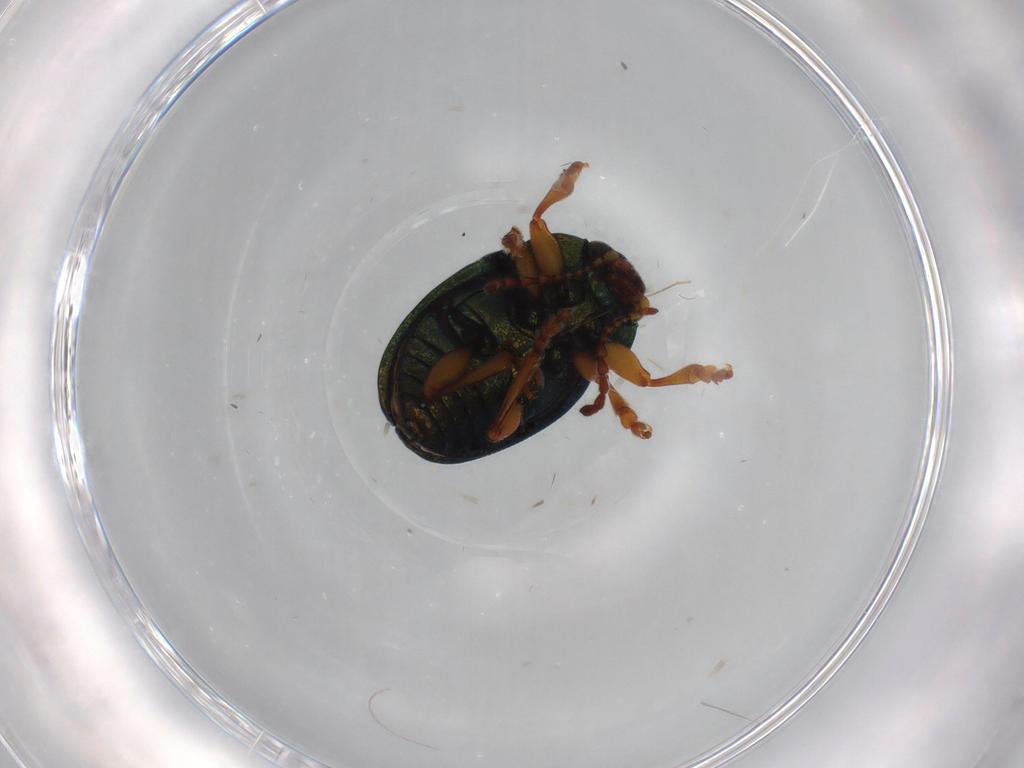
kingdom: Animalia
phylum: Arthropoda
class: Insecta
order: Coleoptera
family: Chrysomelidae
